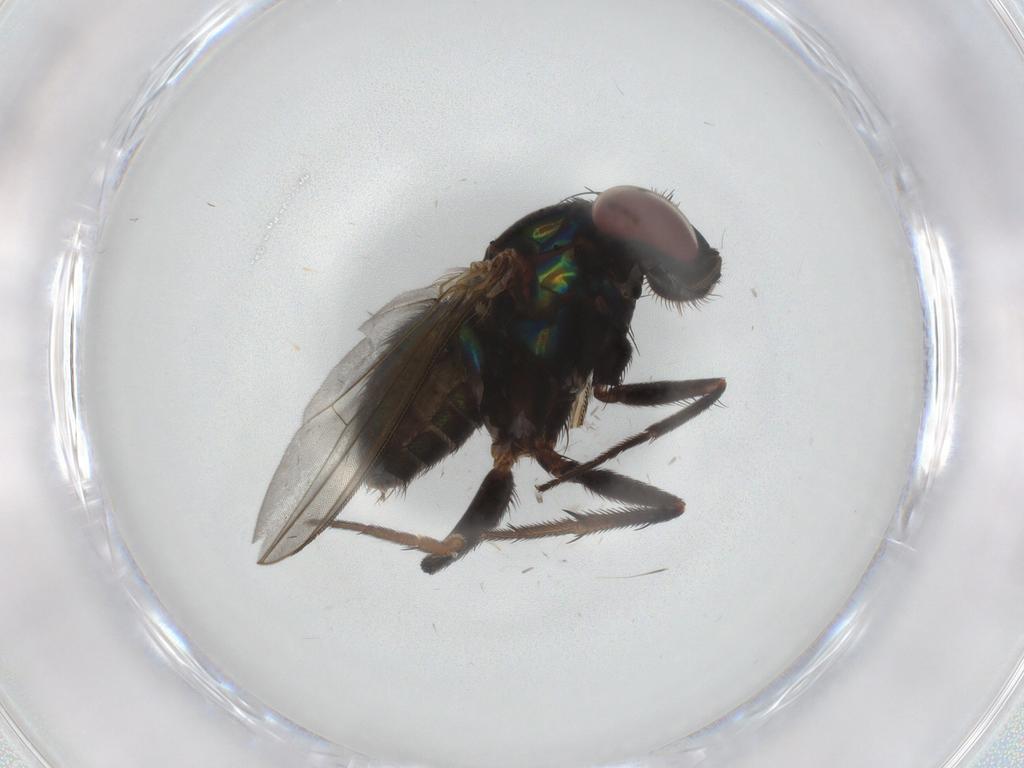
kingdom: Animalia
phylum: Arthropoda
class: Insecta
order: Diptera
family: Dolichopodidae
